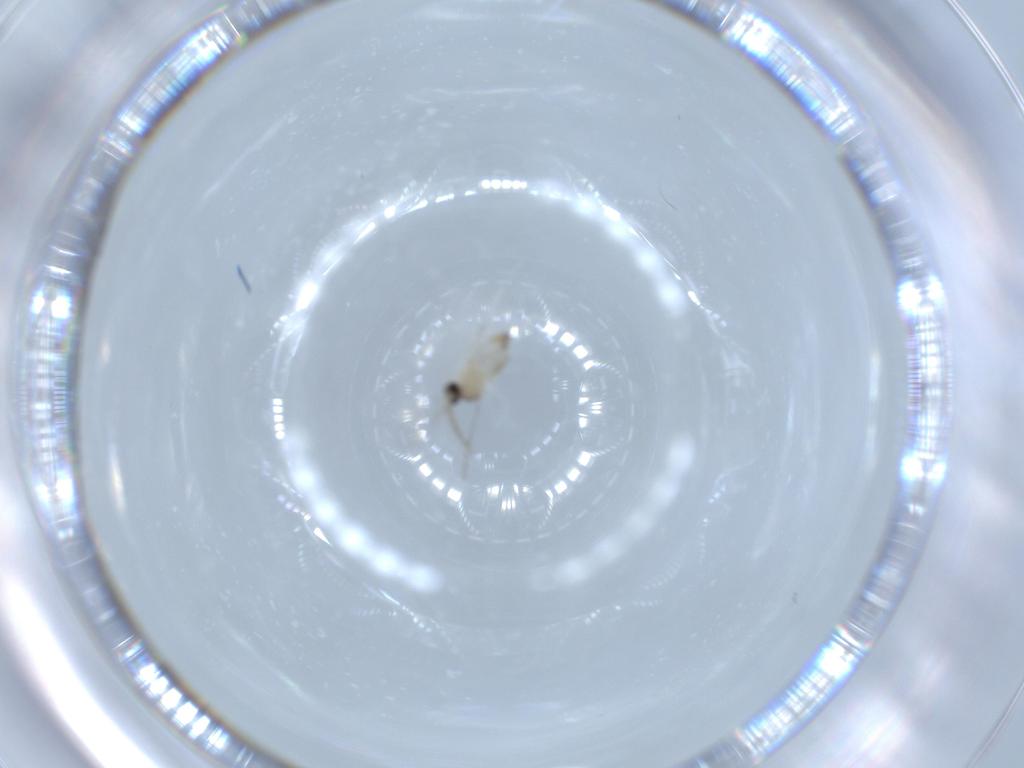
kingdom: Animalia
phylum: Arthropoda
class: Insecta
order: Diptera
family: Cecidomyiidae
